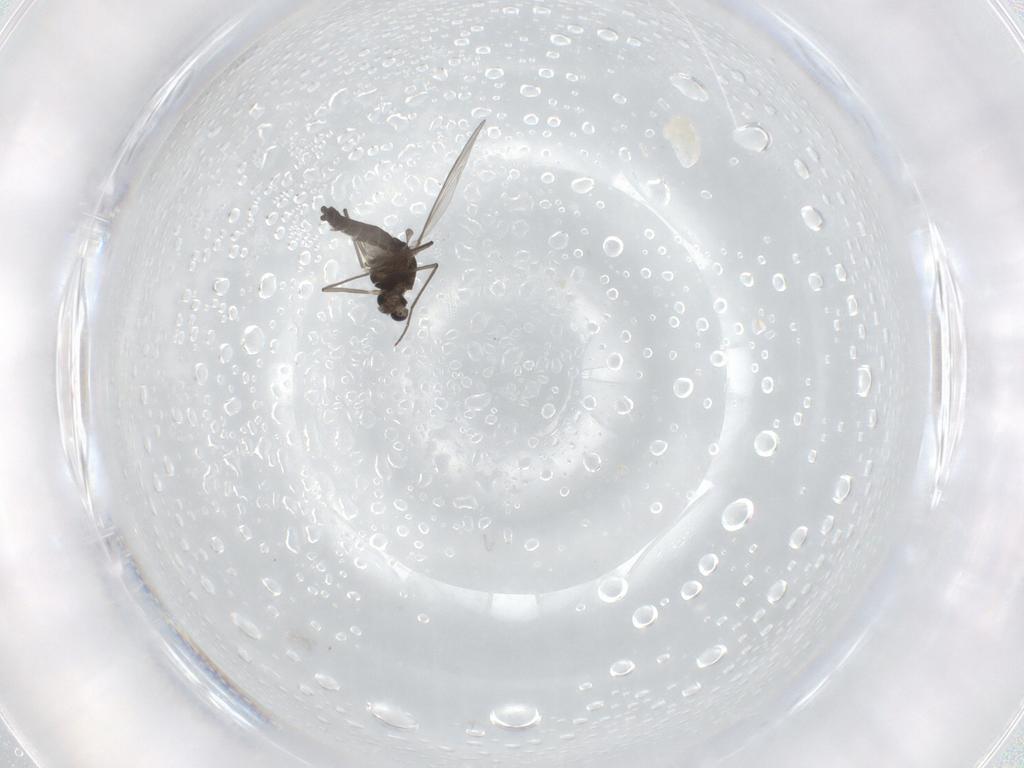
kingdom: Animalia
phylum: Arthropoda
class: Insecta
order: Diptera
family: Chironomidae
